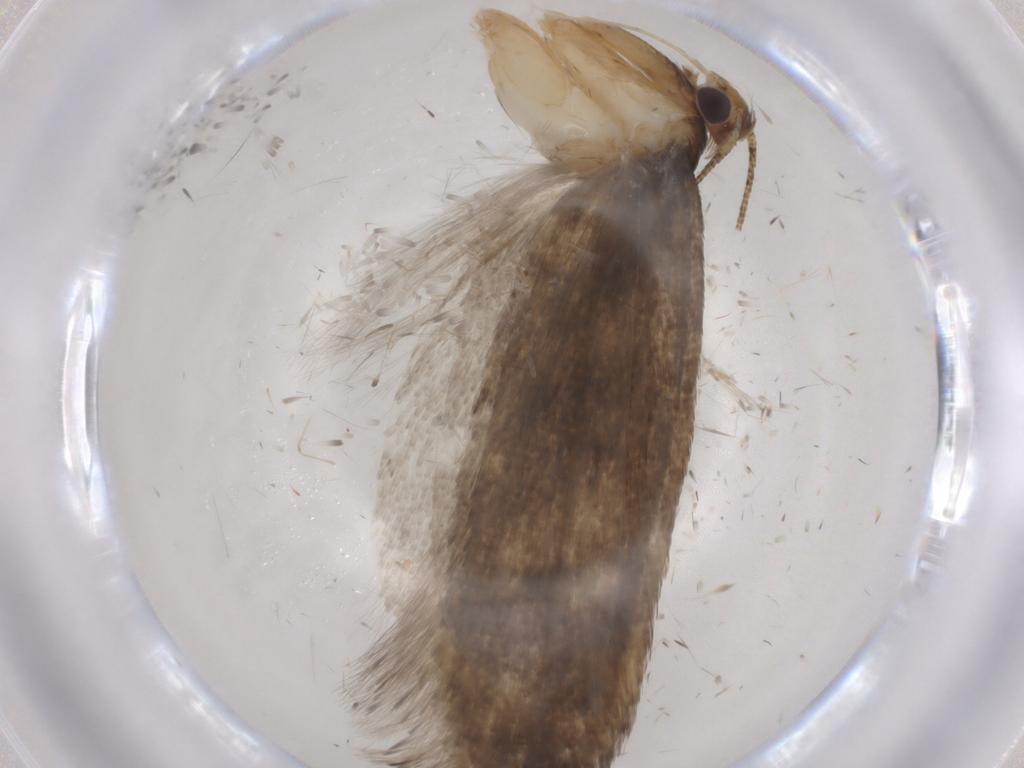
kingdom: Animalia
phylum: Arthropoda
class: Insecta
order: Lepidoptera
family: Gelechiidae
